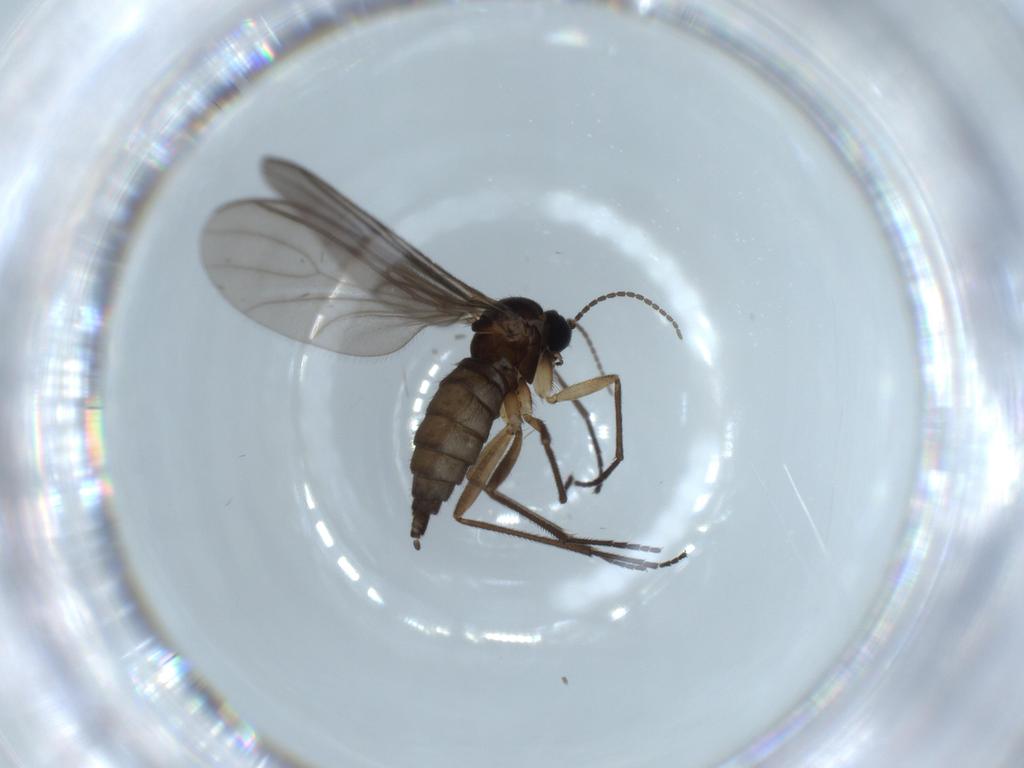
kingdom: Animalia
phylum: Arthropoda
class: Insecta
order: Diptera
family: Sciaridae
